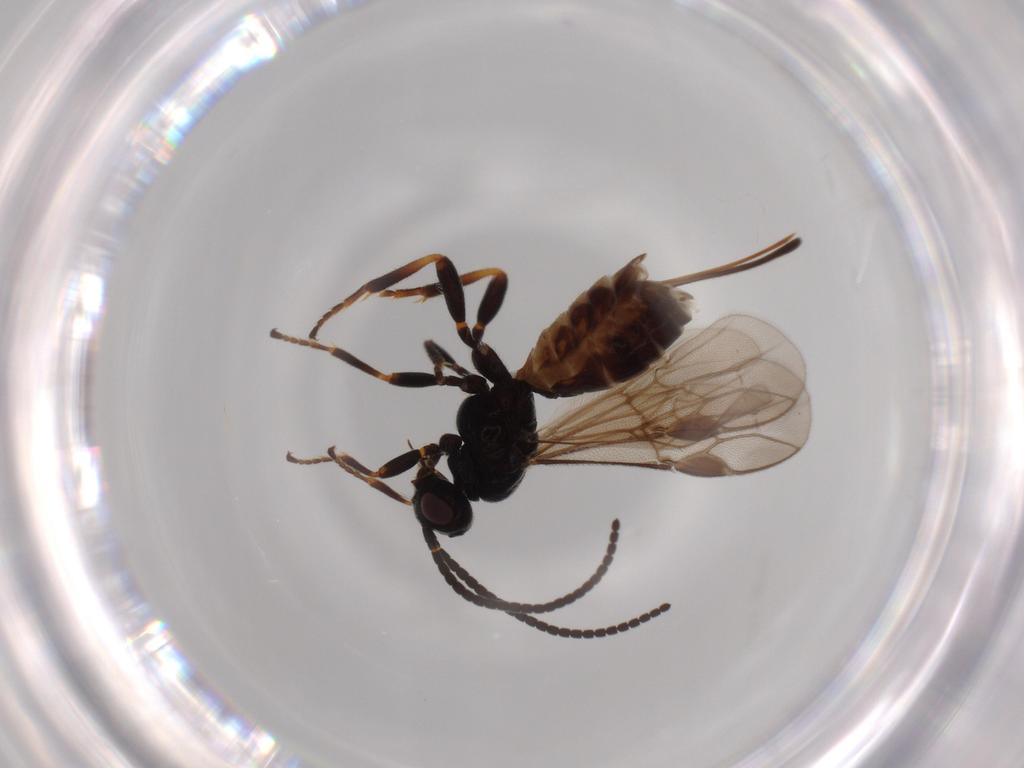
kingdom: Animalia
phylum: Arthropoda
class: Insecta
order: Hymenoptera
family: Braconidae
